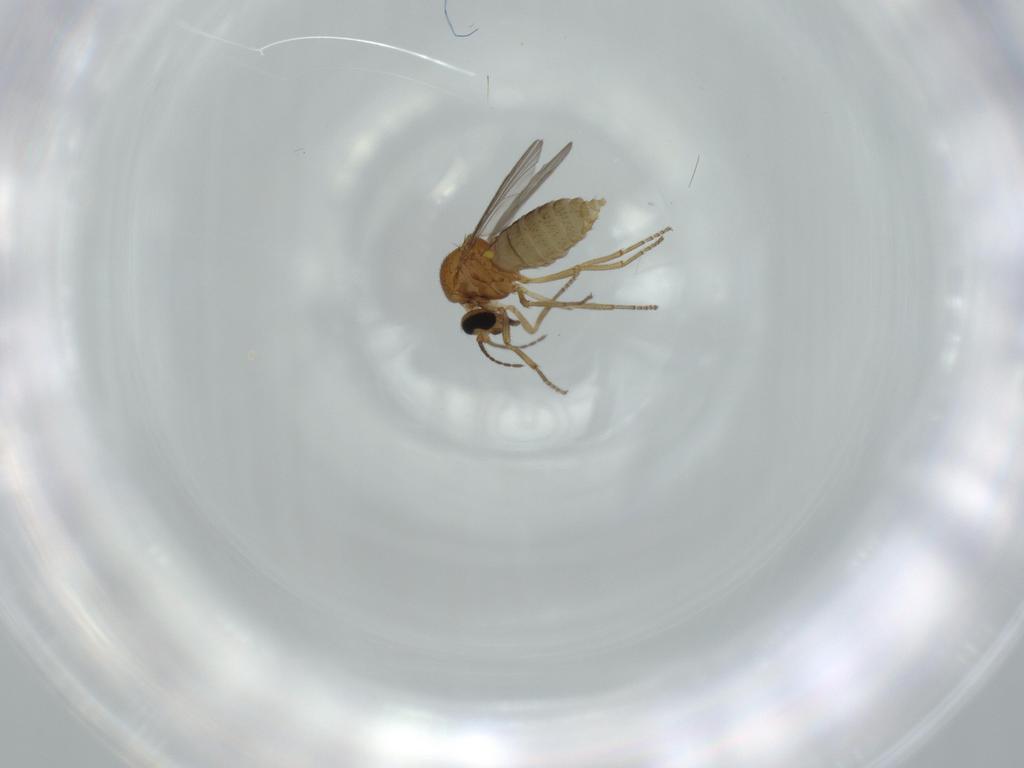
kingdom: Animalia
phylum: Arthropoda
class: Insecta
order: Diptera
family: Ceratopogonidae
